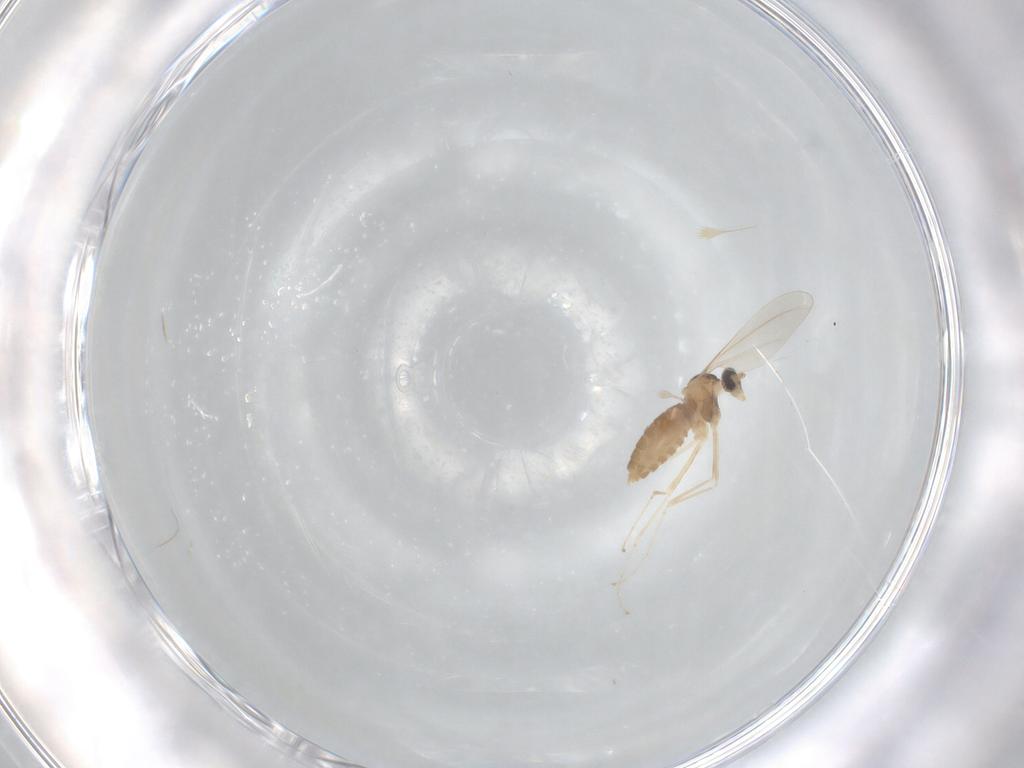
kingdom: Animalia
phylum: Arthropoda
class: Insecta
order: Diptera
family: Cecidomyiidae
